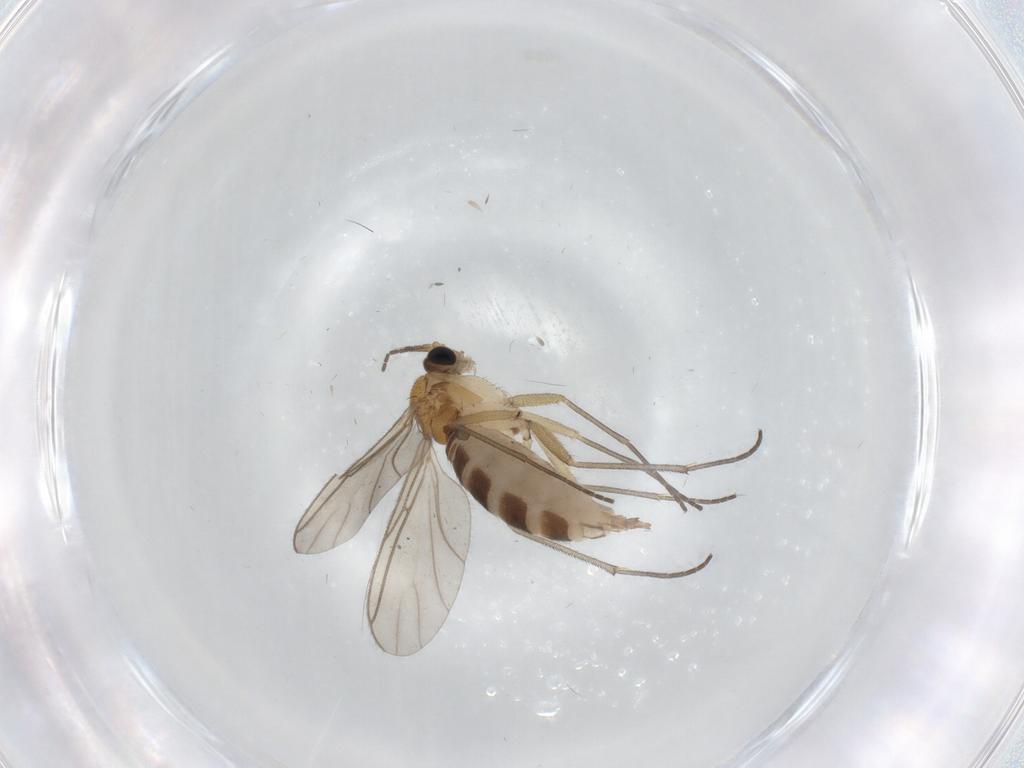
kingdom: Animalia
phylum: Arthropoda
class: Insecta
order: Diptera
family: Ceratopogonidae
